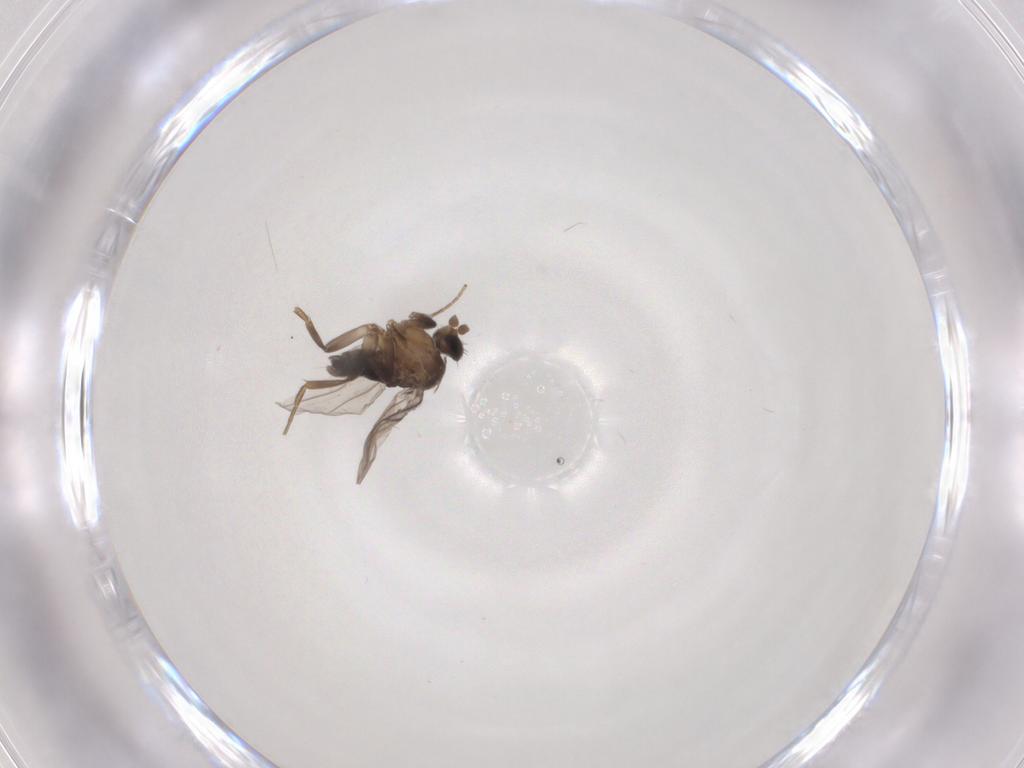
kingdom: Animalia
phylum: Arthropoda
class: Insecta
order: Diptera
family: Phoridae
